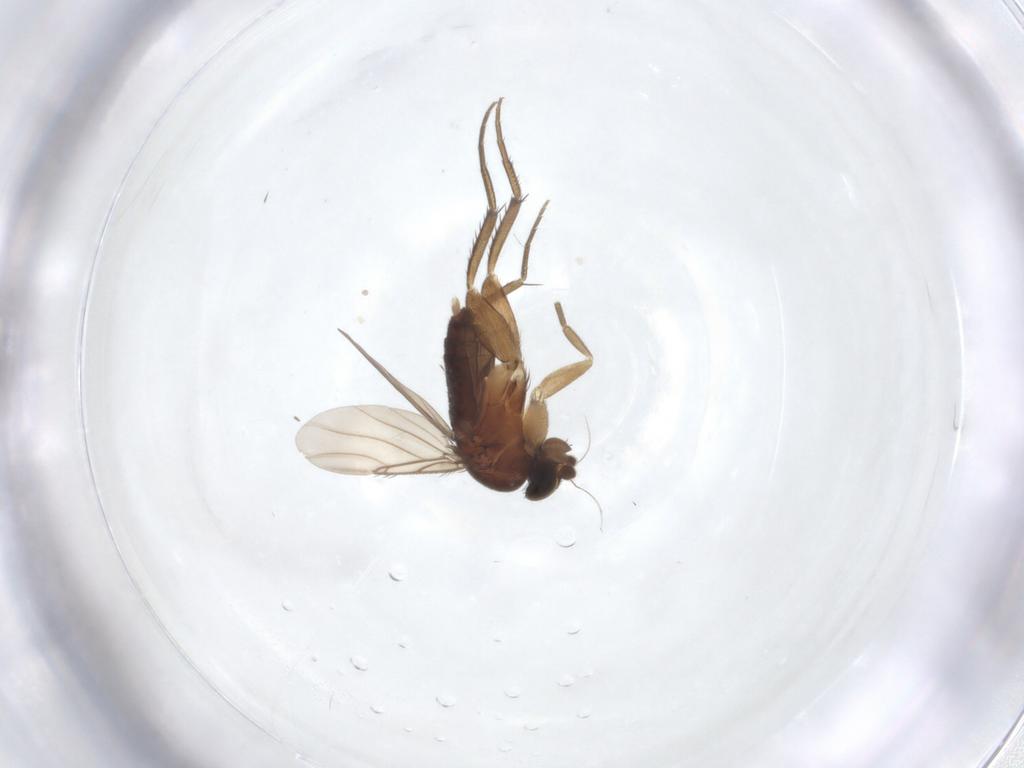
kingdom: Animalia
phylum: Arthropoda
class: Insecta
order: Diptera
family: Phoridae
